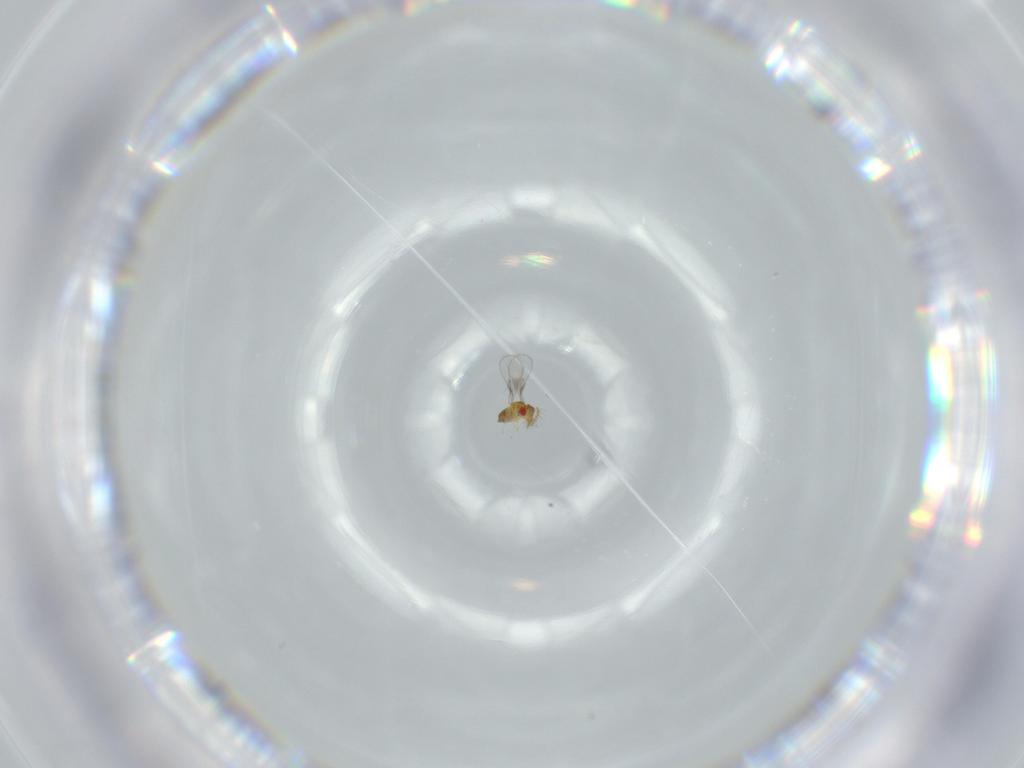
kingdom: Animalia
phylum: Arthropoda
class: Insecta
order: Hymenoptera
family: Trichogrammatidae
